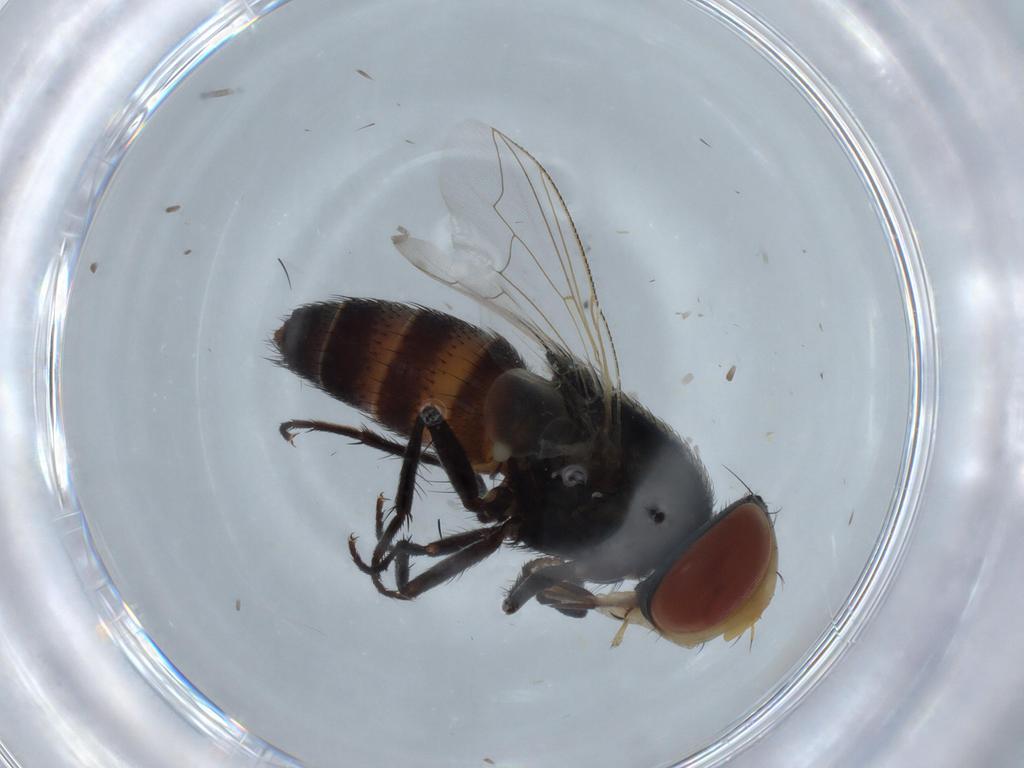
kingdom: Animalia
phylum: Arthropoda
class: Insecta
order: Diptera
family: Sarcophagidae
